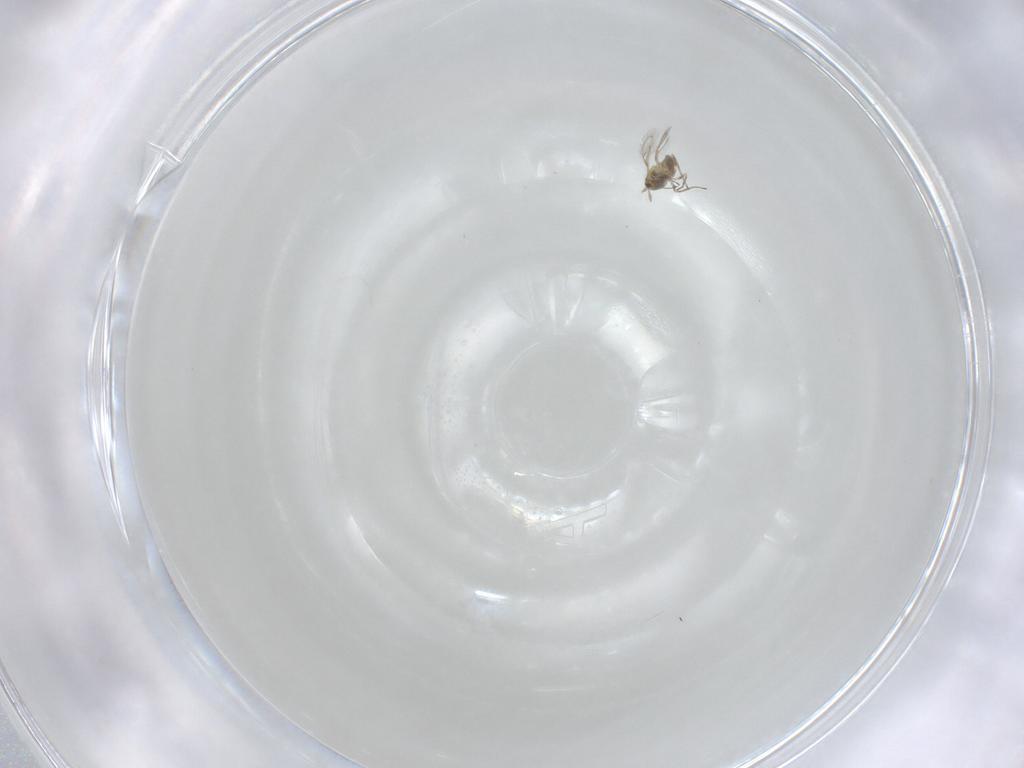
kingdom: Animalia
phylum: Arthropoda
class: Insecta
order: Hymenoptera
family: Trichogrammatidae
